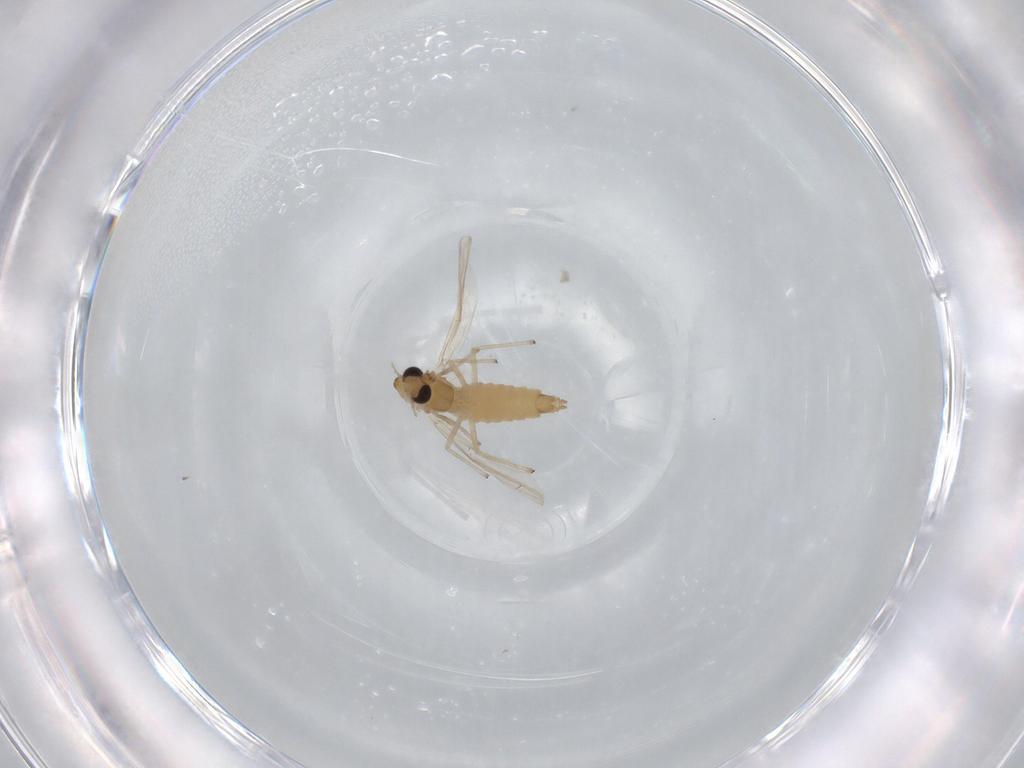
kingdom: Animalia
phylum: Arthropoda
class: Insecta
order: Diptera
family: Chironomidae
